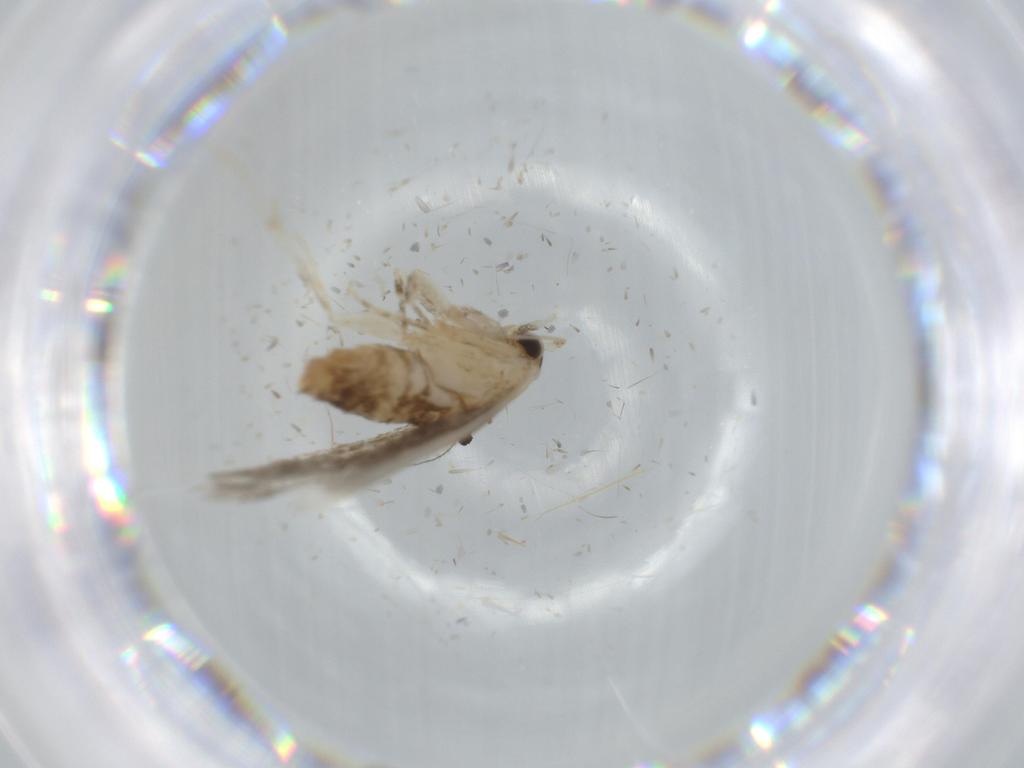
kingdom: Animalia
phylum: Arthropoda
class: Insecta
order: Lepidoptera
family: Tineidae
